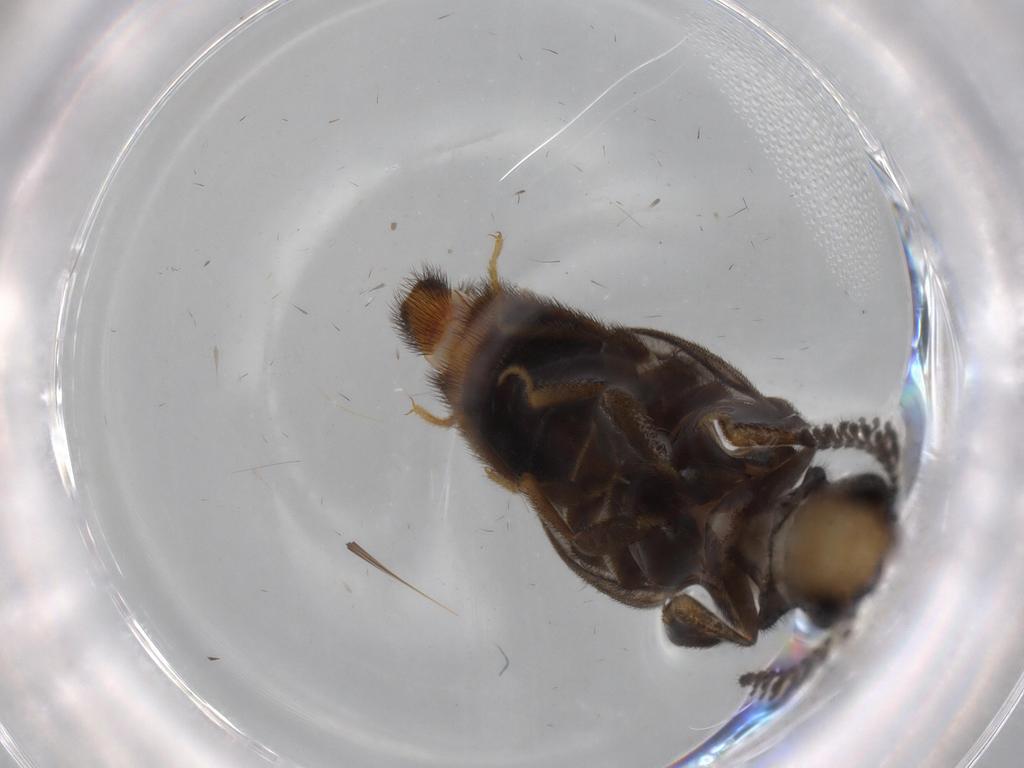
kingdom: Animalia
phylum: Arthropoda
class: Insecta
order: Coleoptera
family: Phengodidae
